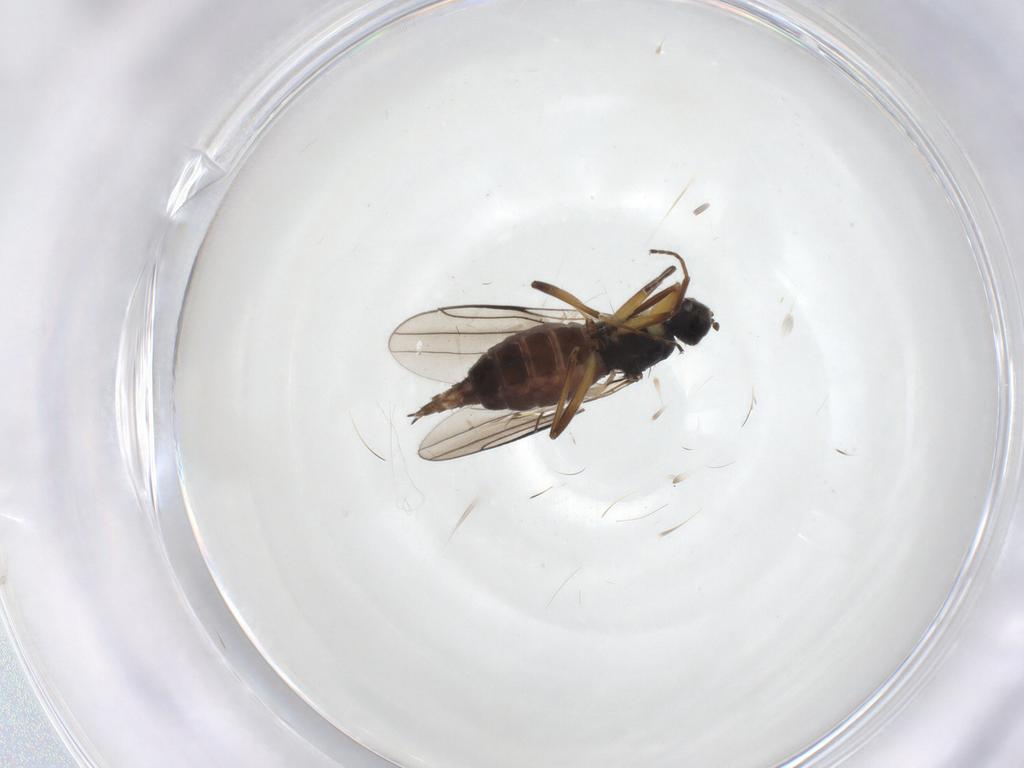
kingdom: Animalia
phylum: Arthropoda
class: Insecta
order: Diptera
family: Hybotidae
